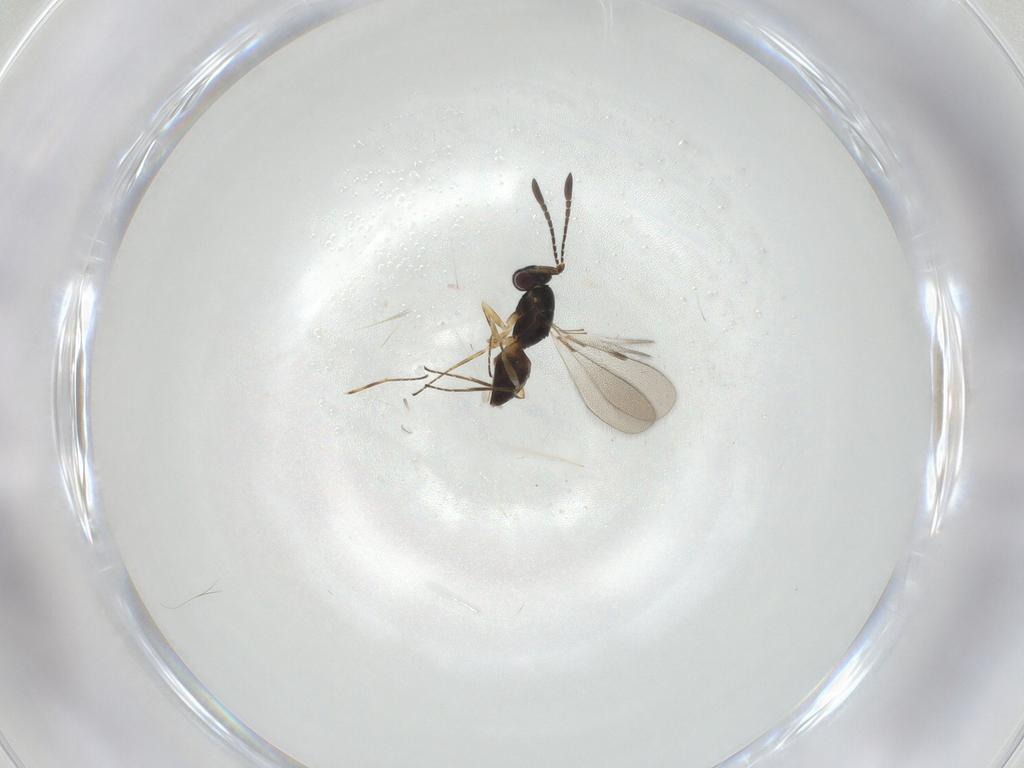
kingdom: Animalia
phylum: Arthropoda
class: Insecta
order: Hymenoptera
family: Mymaridae
